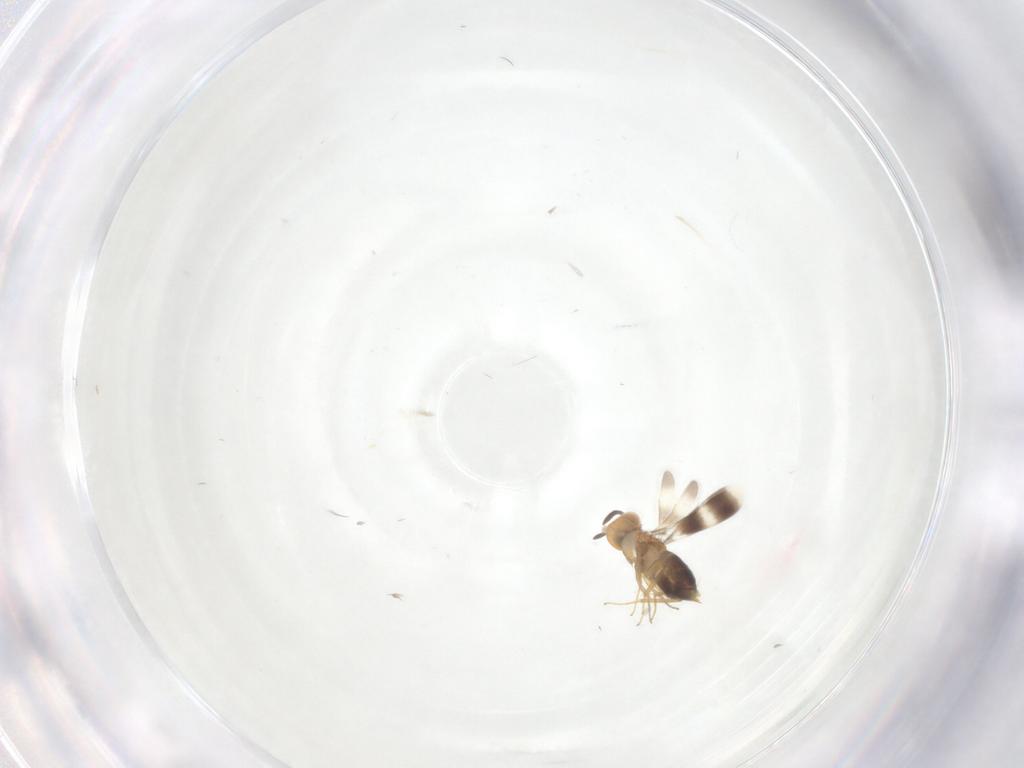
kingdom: Animalia
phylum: Arthropoda
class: Insecta
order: Hymenoptera
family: Aphelinidae
